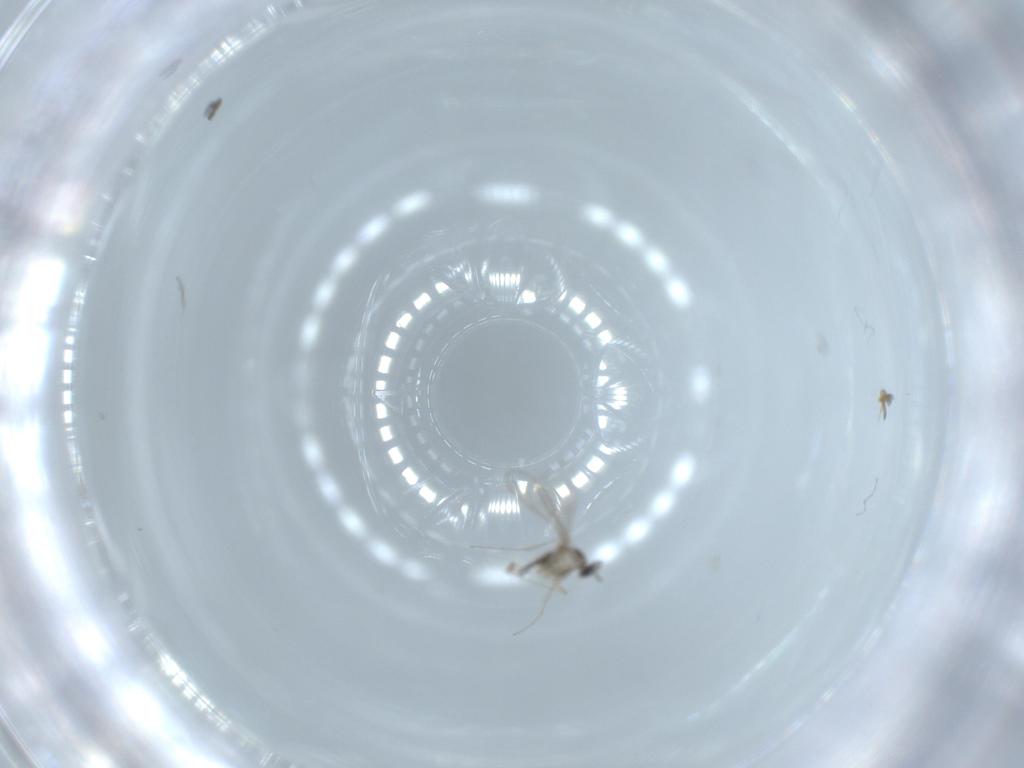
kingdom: Animalia
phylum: Arthropoda
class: Insecta
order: Diptera
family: Cecidomyiidae
